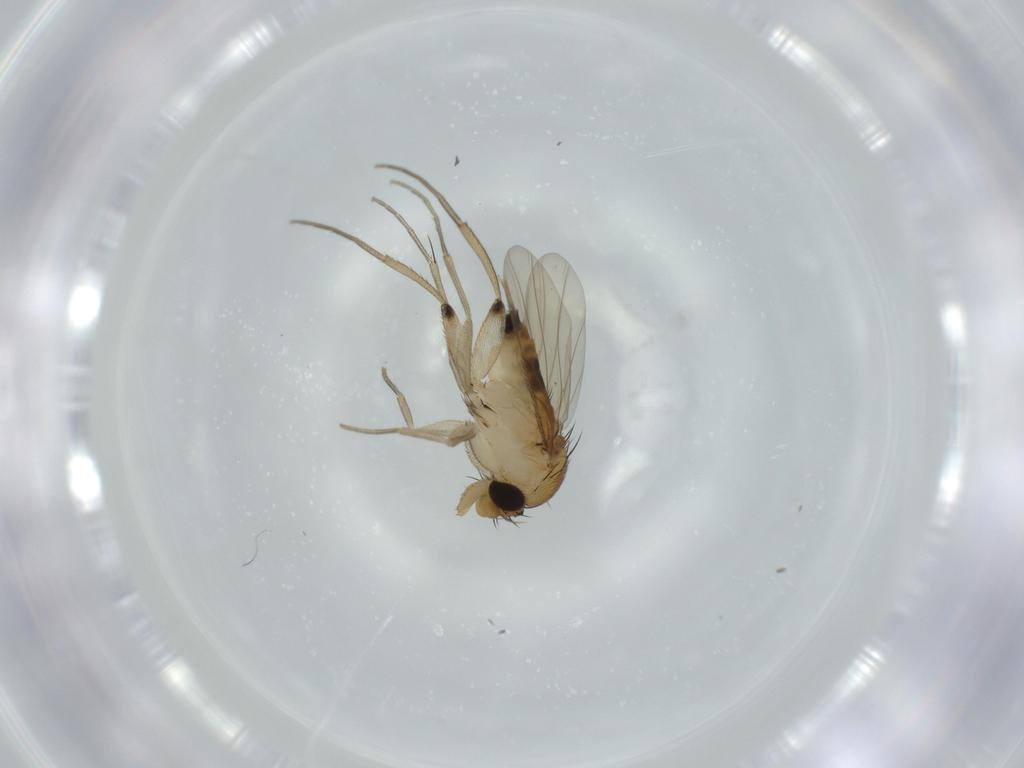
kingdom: Animalia
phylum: Arthropoda
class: Insecta
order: Diptera
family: Phoridae
